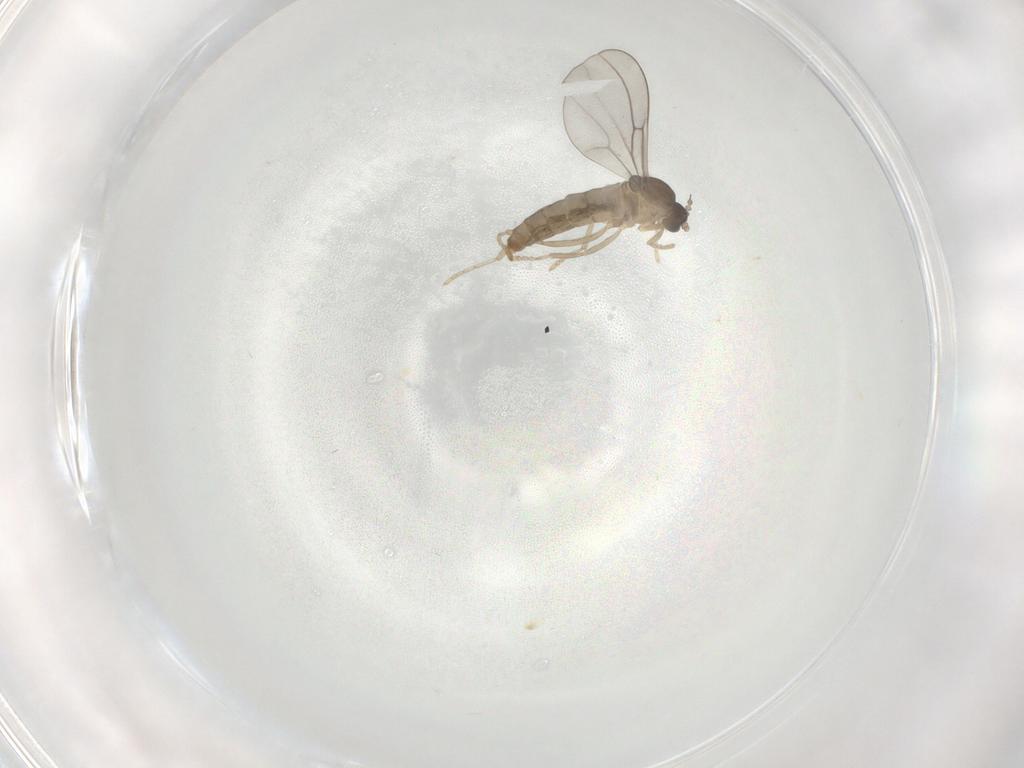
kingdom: Animalia
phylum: Arthropoda
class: Insecta
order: Diptera
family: Cecidomyiidae
